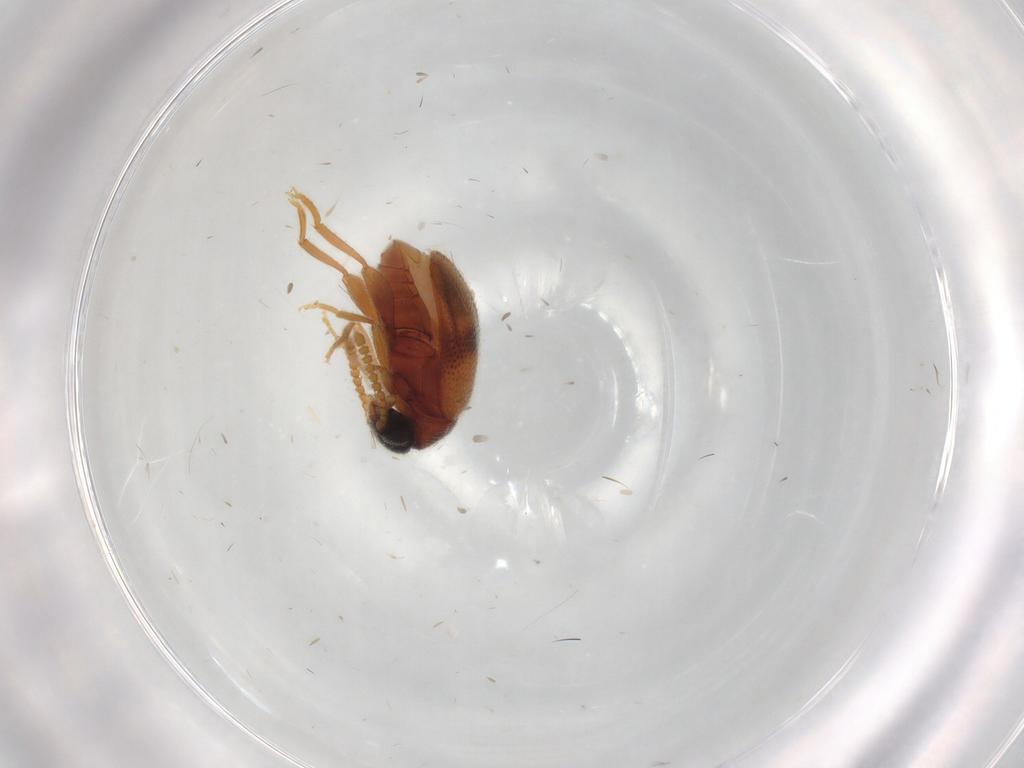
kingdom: Animalia
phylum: Arthropoda
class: Insecta
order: Coleoptera
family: Aderidae
